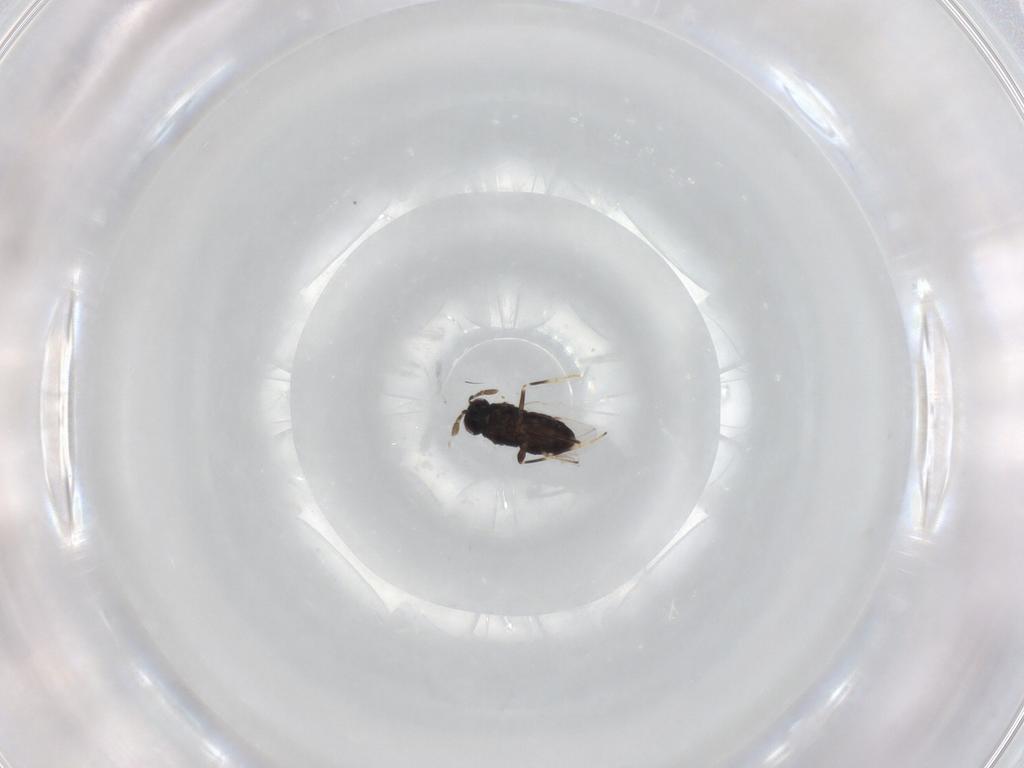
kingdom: Animalia
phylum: Arthropoda
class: Insecta
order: Hymenoptera
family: Encyrtidae
